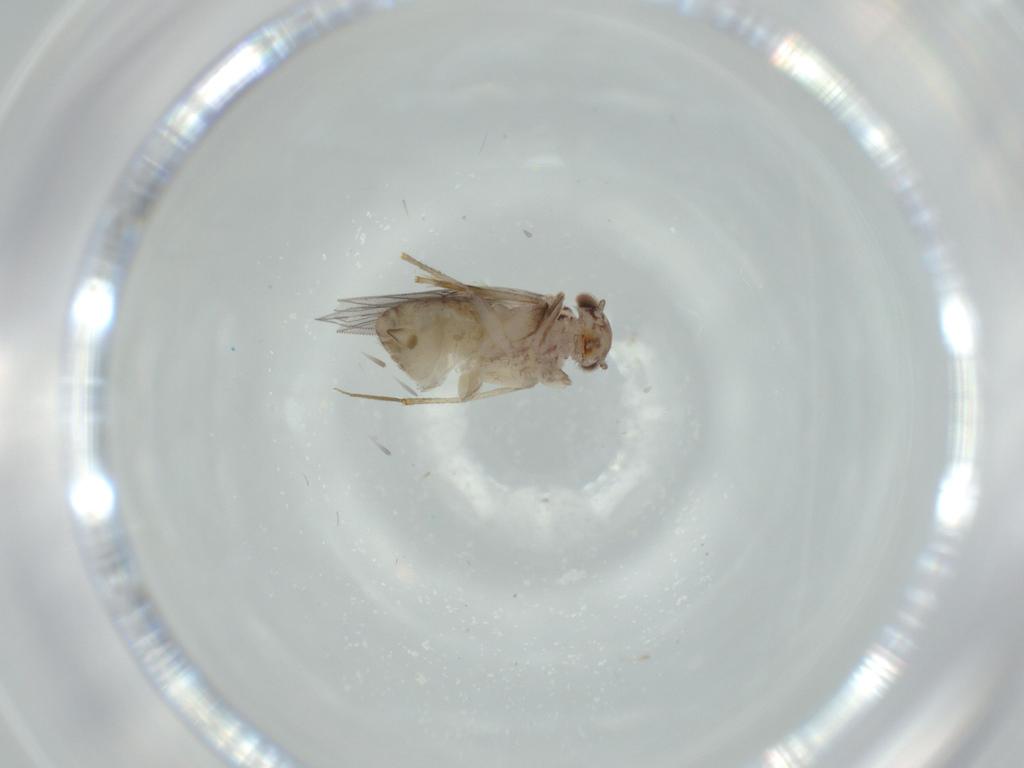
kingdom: Animalia
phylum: Arthropoda
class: Insecta
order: Psocodea
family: Lepidopsocidae
